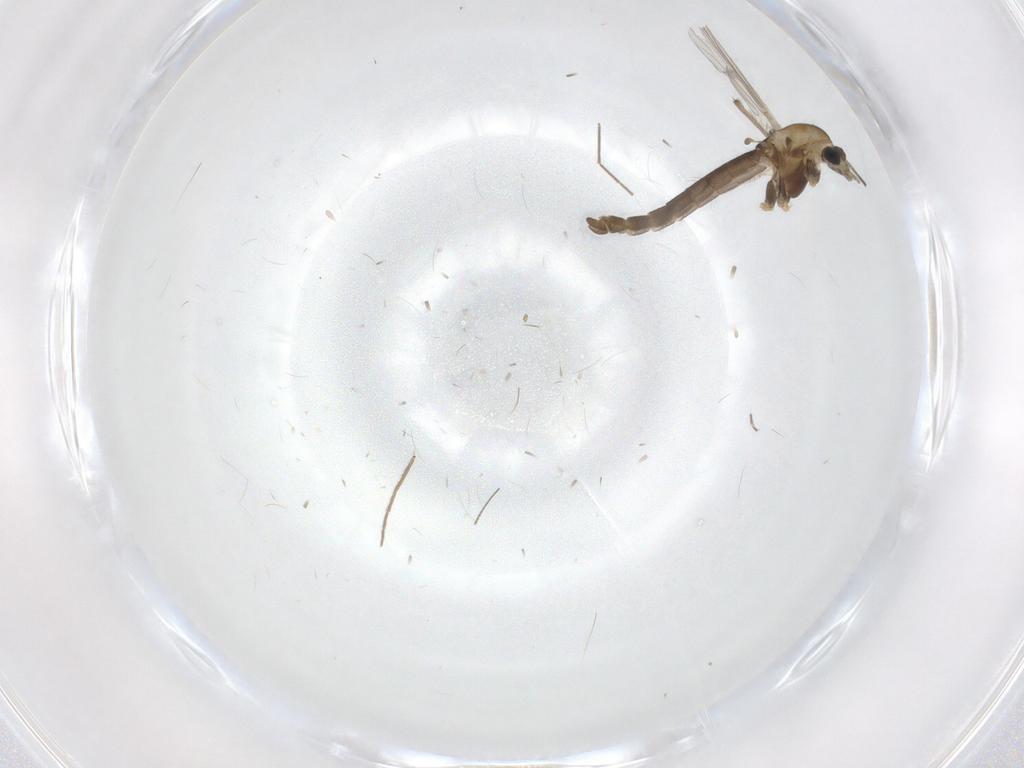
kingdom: Animalia
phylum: Arthropoda
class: Insecta
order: Diptera
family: Chironomidae
